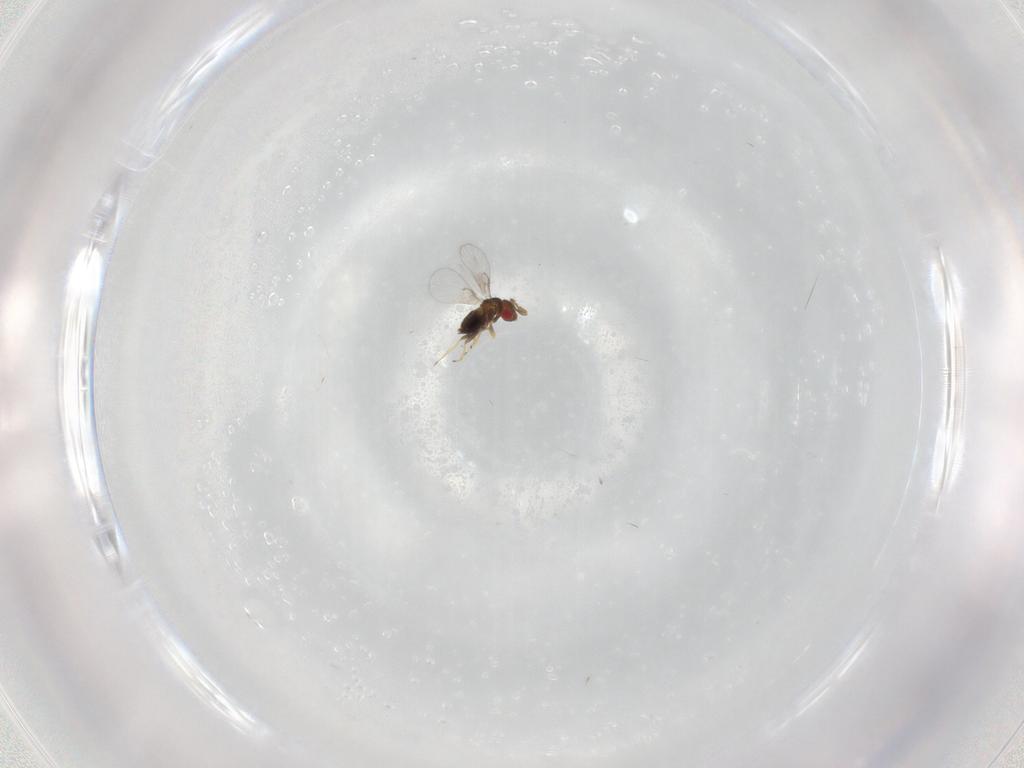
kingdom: Animalia
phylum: Arthropoda
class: Insecta
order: Hymenoptera
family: Trichogrammatidae
